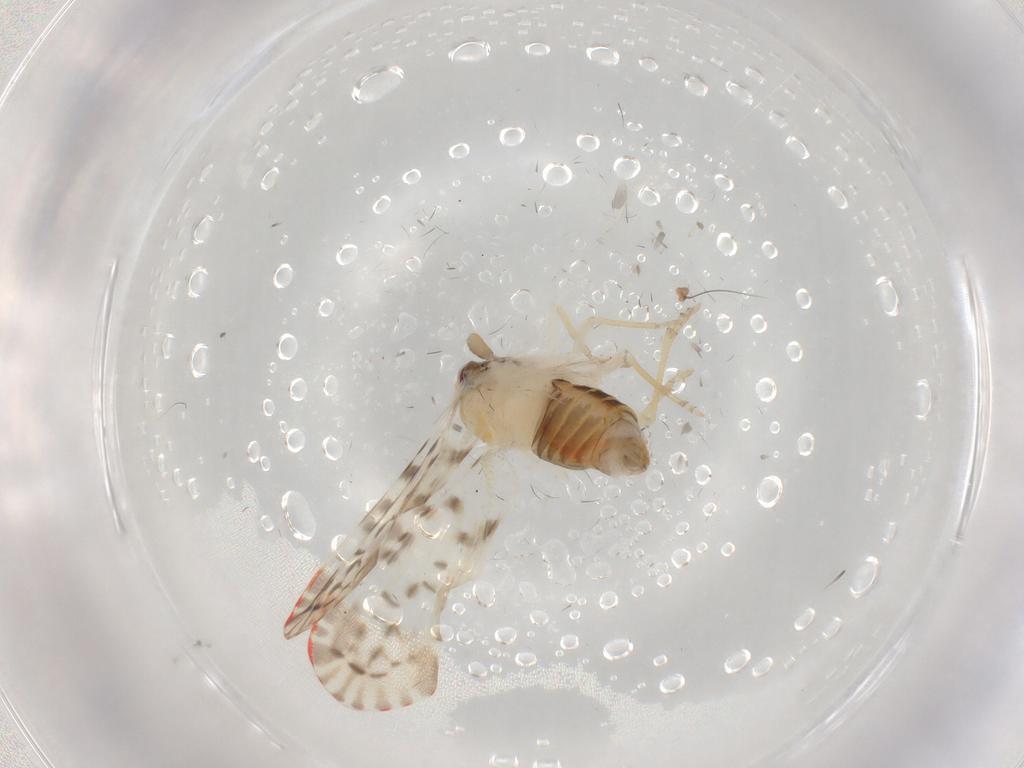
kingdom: Animalia
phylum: Arthropoda
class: Insecta
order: Hemiptera
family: Derbidae
